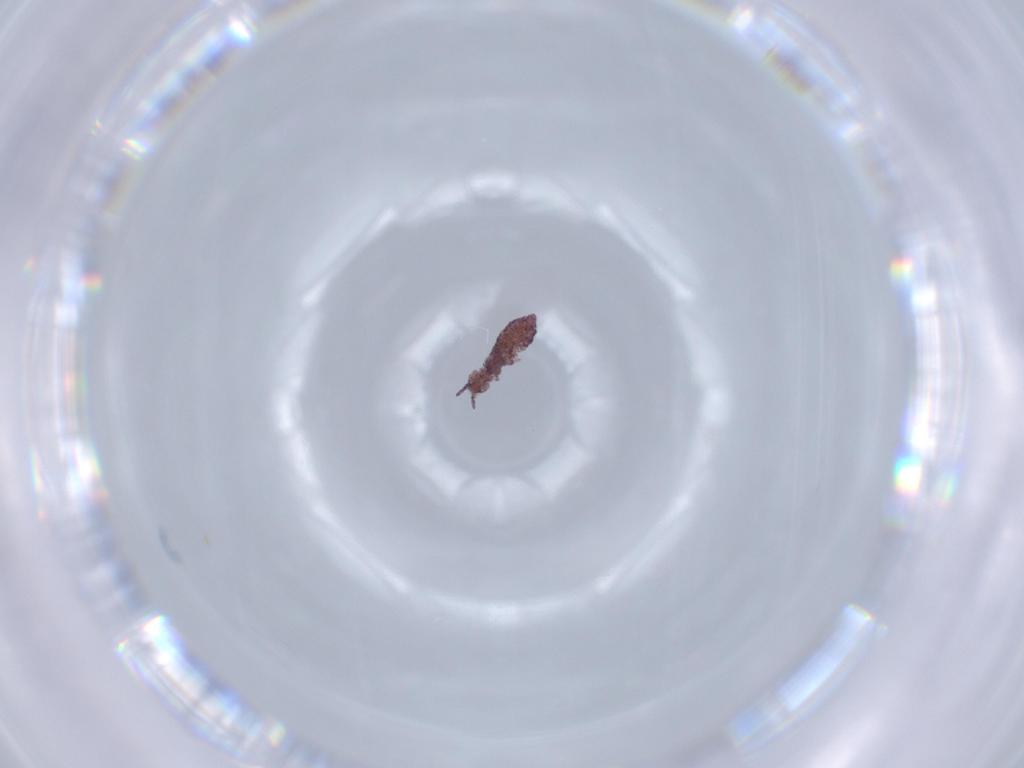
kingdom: Animalia
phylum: Arthropoda
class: Collembola
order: Poduromorpha
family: Brachystomellidae
